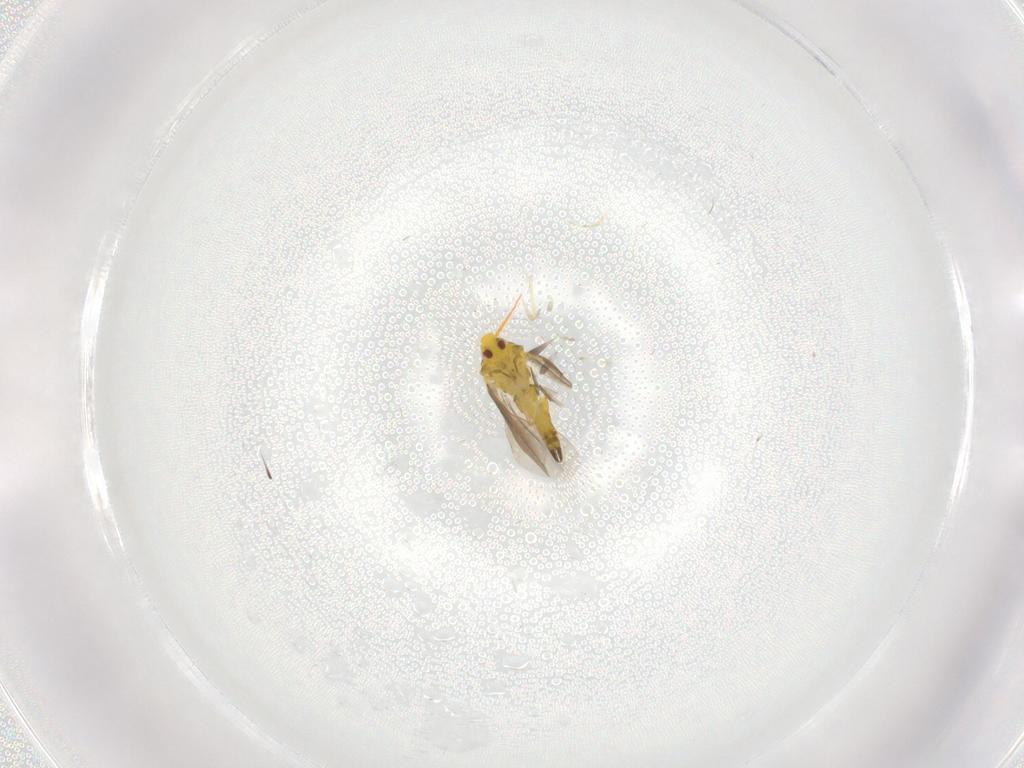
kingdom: Animalia
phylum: Arthropoda
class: Insecta
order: Hemiptera
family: Aleyrodidae
